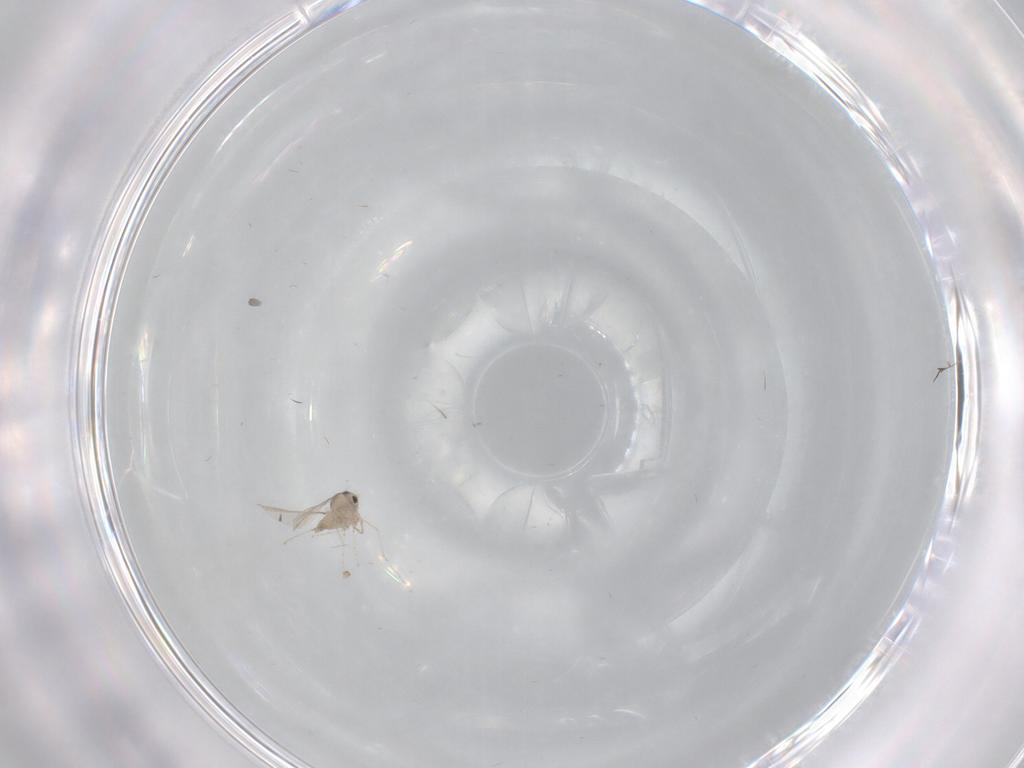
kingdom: Animalia
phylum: Arthropoda
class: Insecta
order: Diptera
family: Cecidomyiidae
